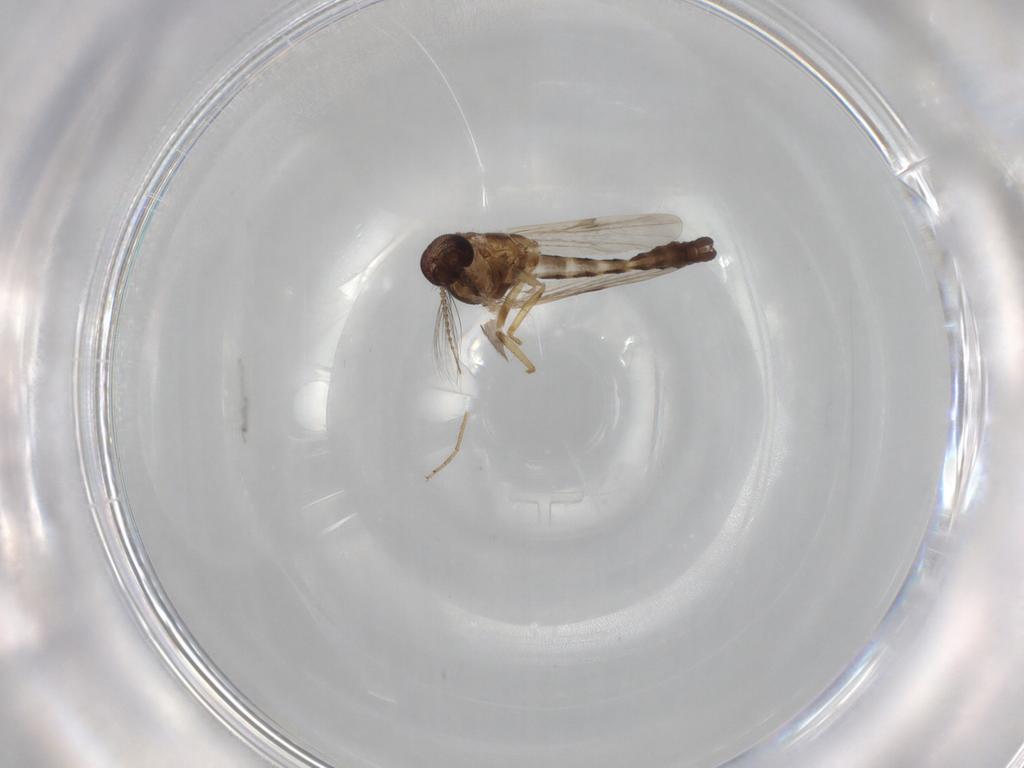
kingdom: Animalia
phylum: Arthropoda
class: Insecta
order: Diptera
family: Ceratopogonidae
